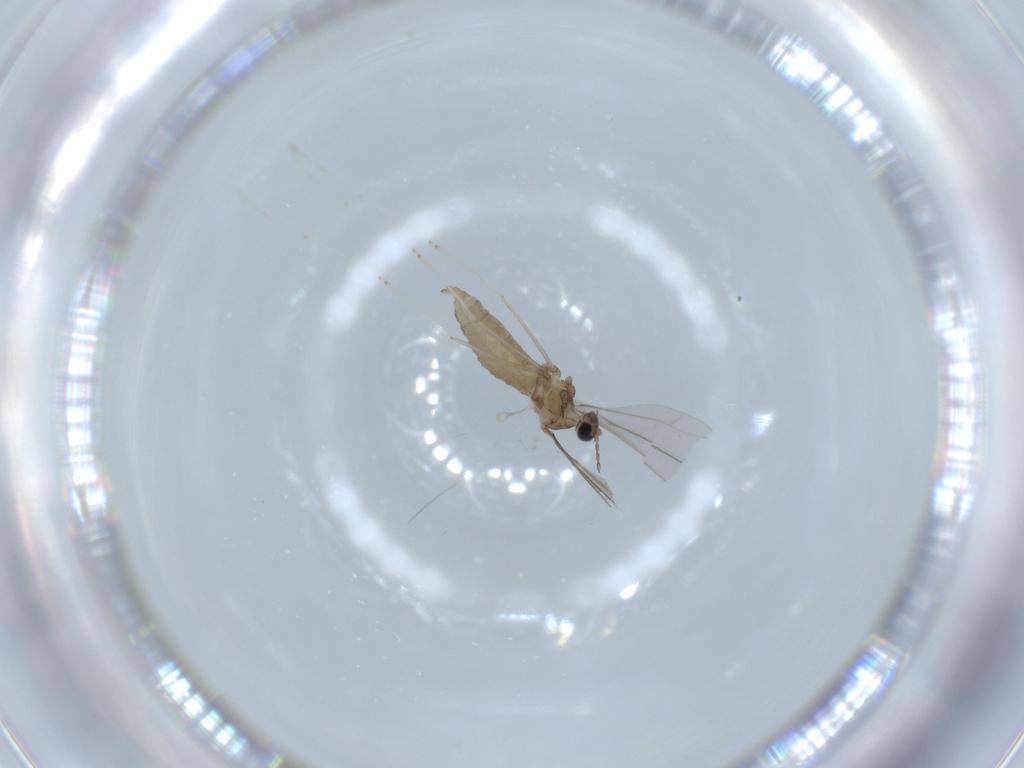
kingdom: Animalia
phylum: Arthropoda
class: Insecta
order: Diptera
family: Cecidomyiidae
